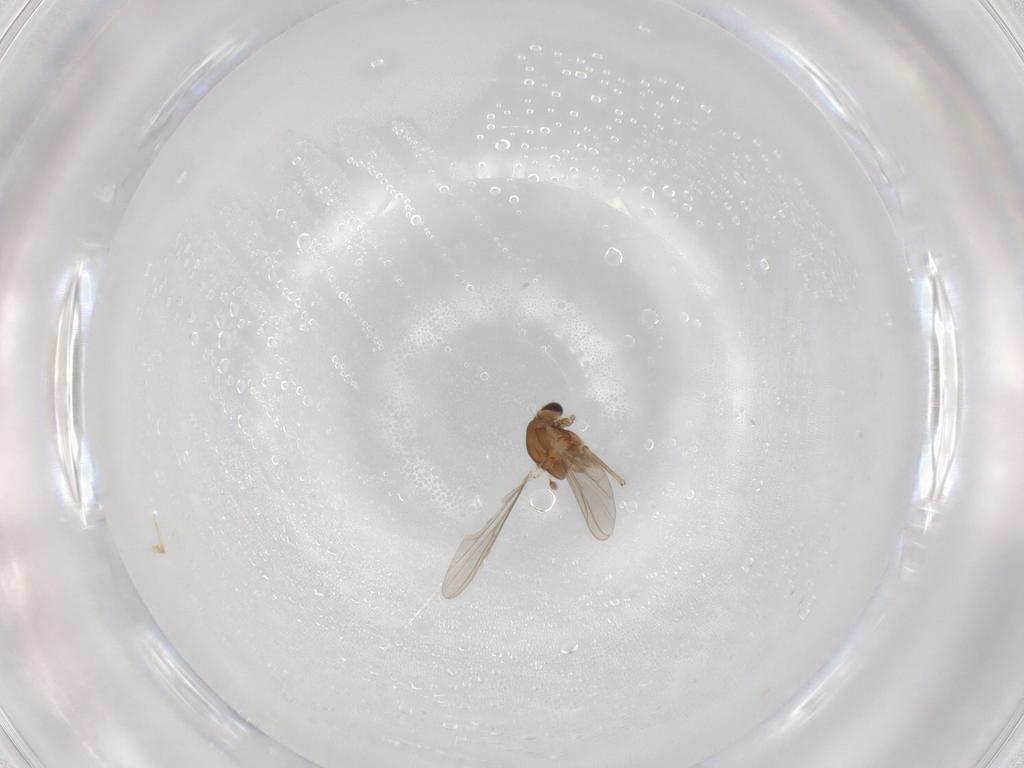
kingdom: Animalia
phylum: Arthropoda
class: Insecta
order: Diptera
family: Chironomidae
